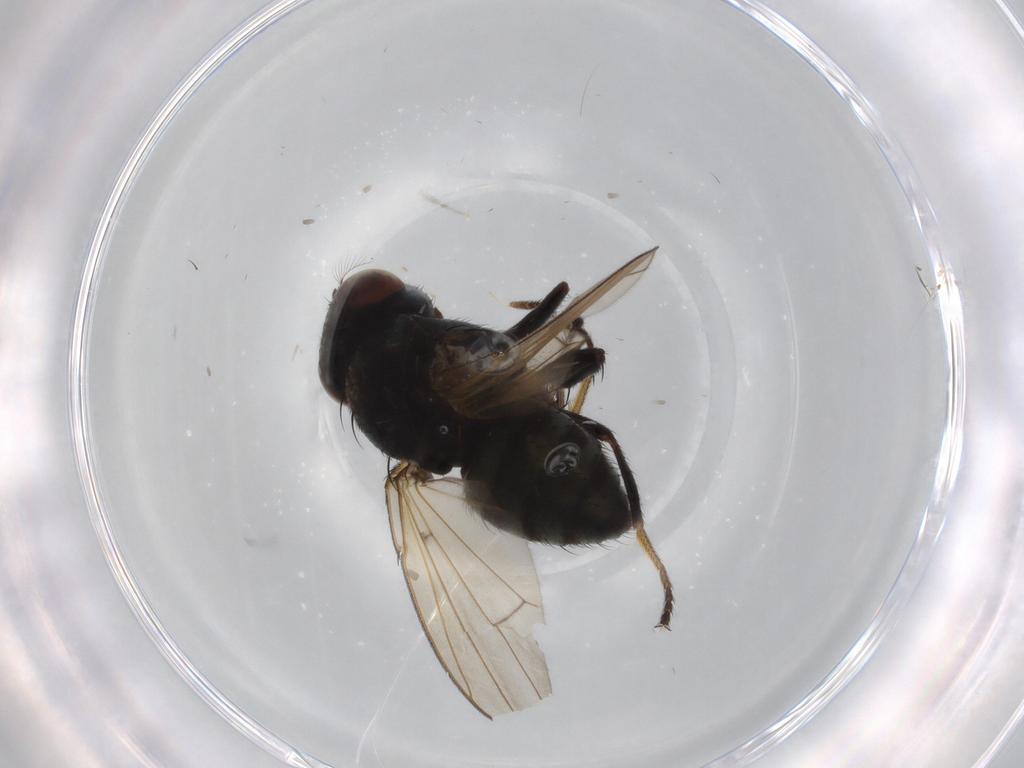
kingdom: Animalia
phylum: Arthropoda
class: Insecta
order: Diptera
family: Ephydridae
